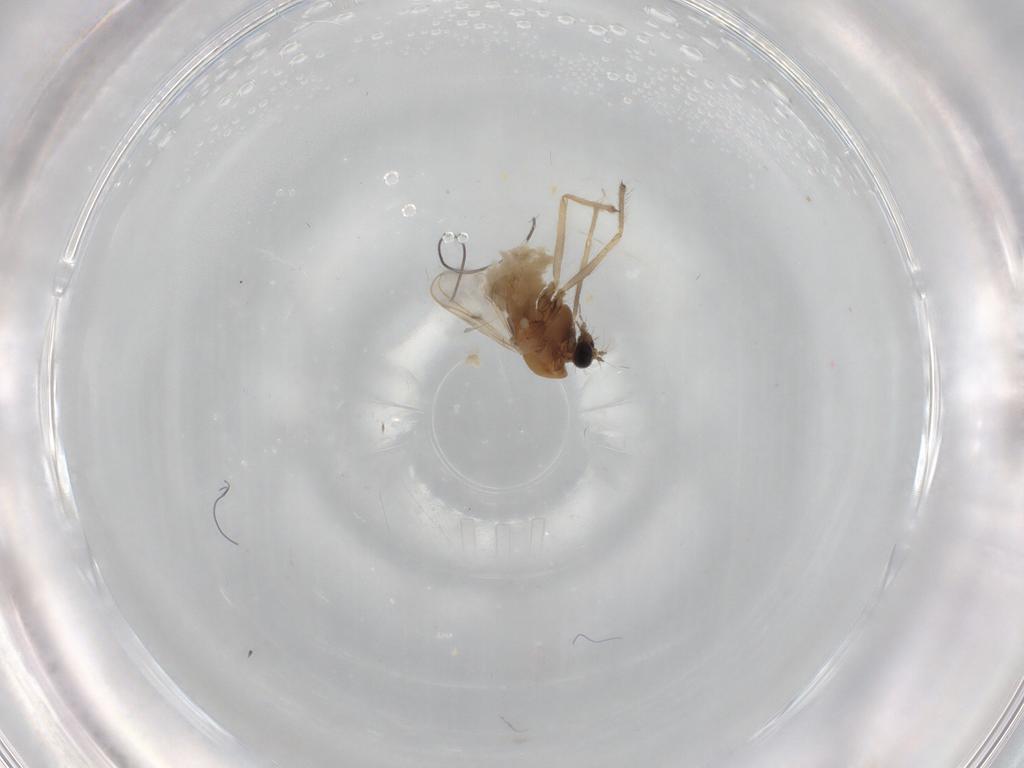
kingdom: Animalia
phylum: Arthropoda
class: Insecta
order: Diptera
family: Chironomidae
